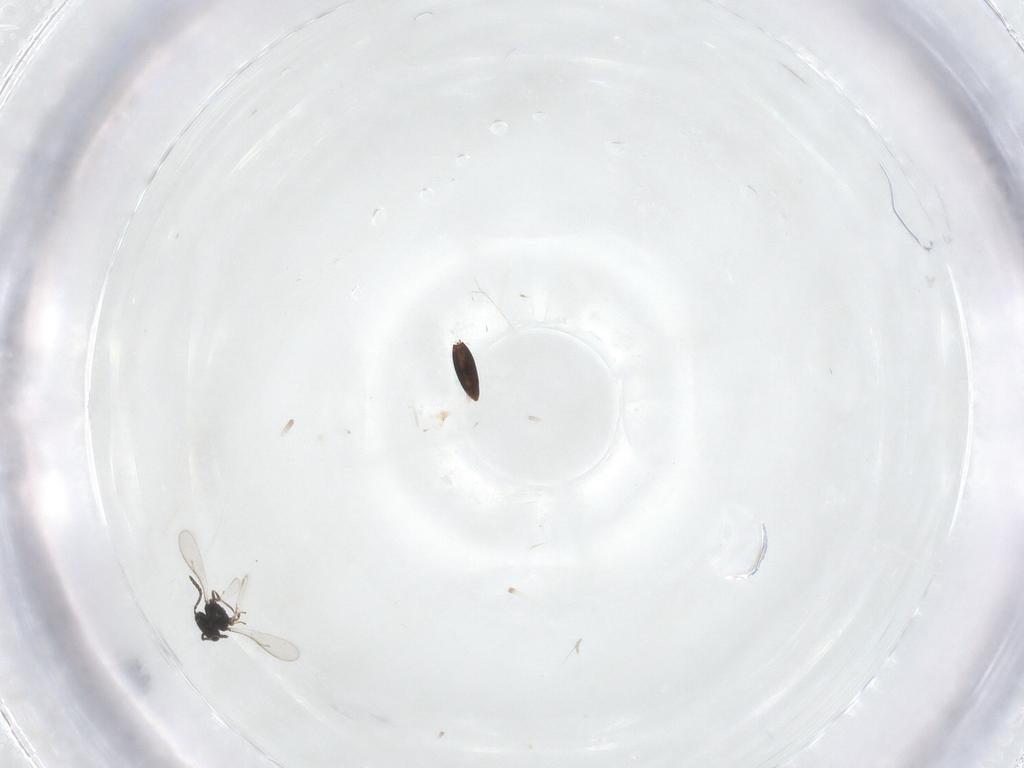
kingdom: Animalia
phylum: Arthropoda
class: Insecta
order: Hymenoptera
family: Scelionidae
